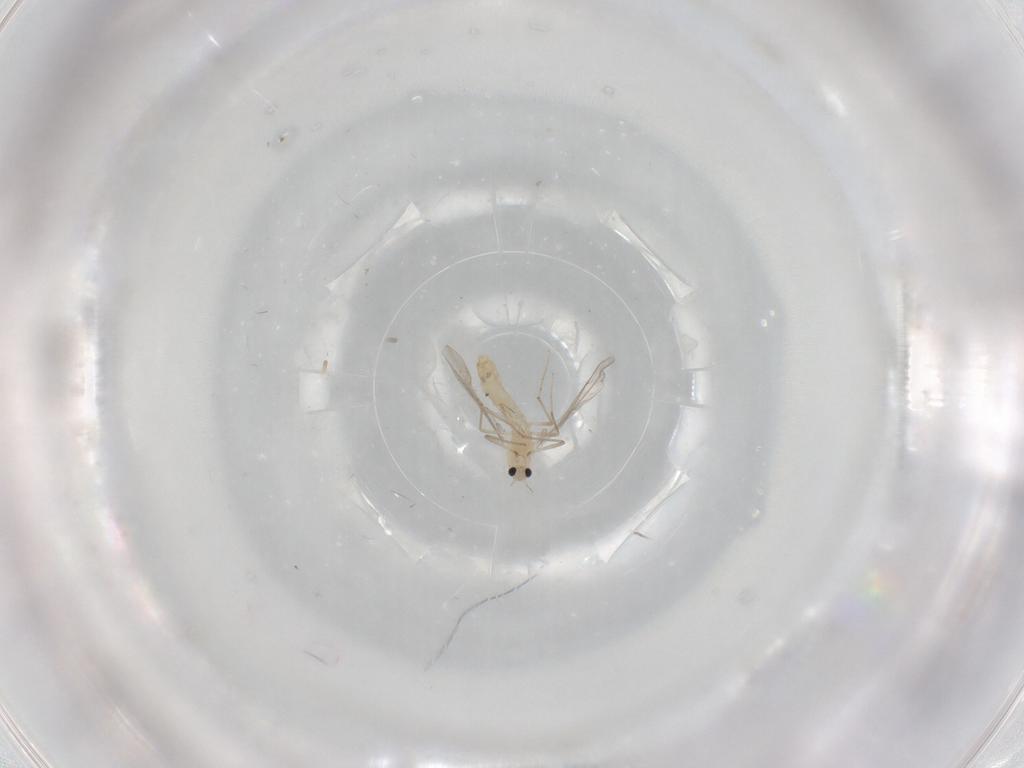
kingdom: Animalia
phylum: Arthropoda
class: Insecta
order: Diptera
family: Chironomidae
